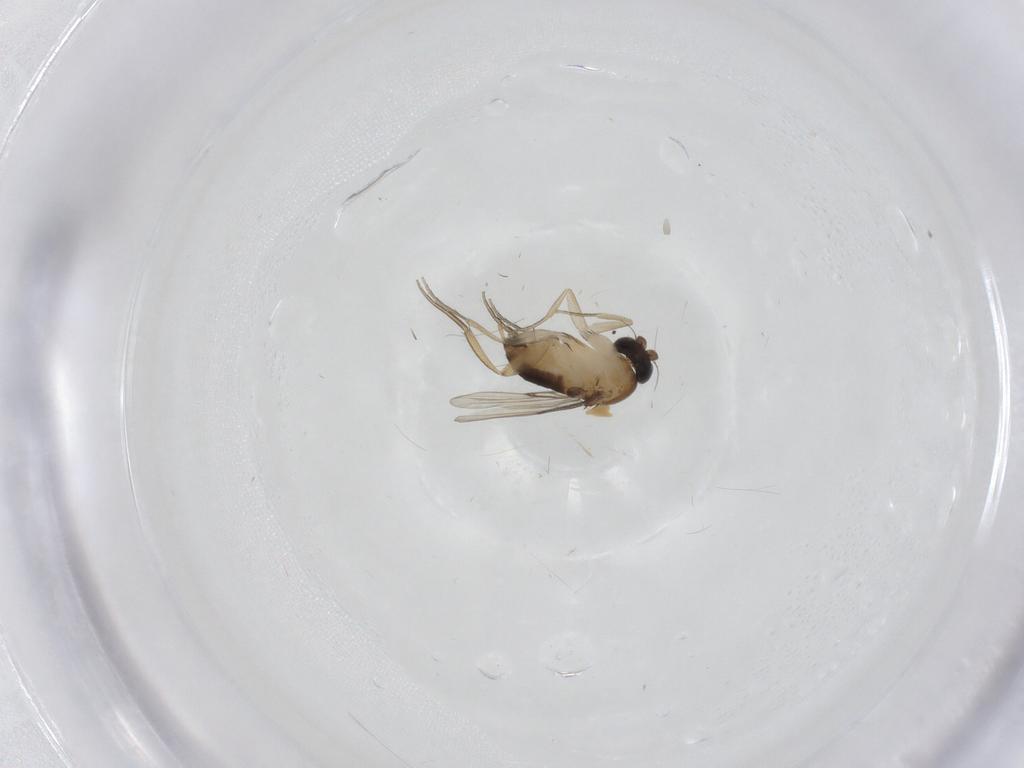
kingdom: Animalia
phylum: Arthropoda
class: Insecta
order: Diptera
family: Phoridae
